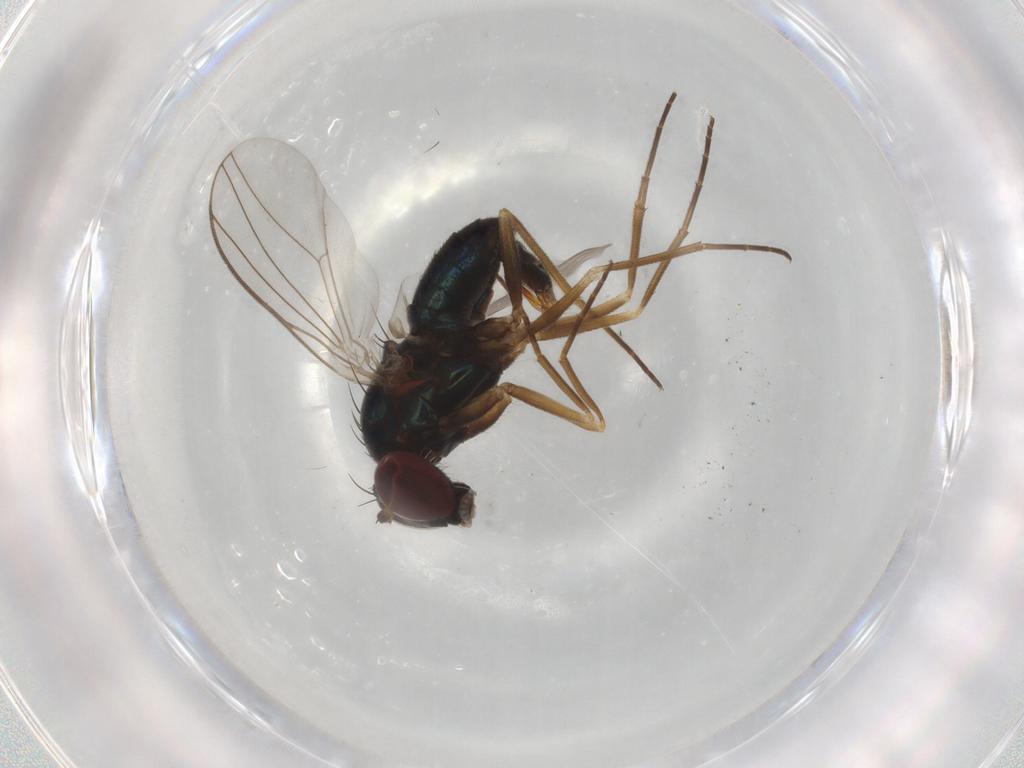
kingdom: Animalia
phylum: Arthropoda
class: Insecta
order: Diptera
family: Dolichopodidae
